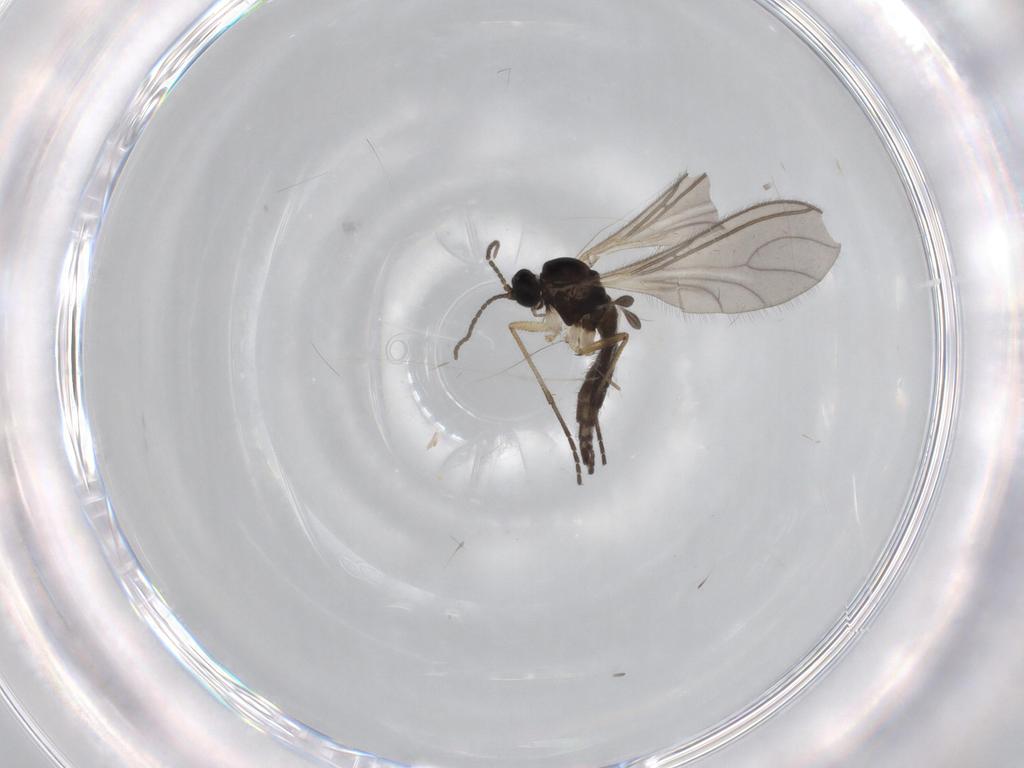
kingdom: Animalia
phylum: Arthropoda
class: Insecta
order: Diptera
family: Sciaridae
